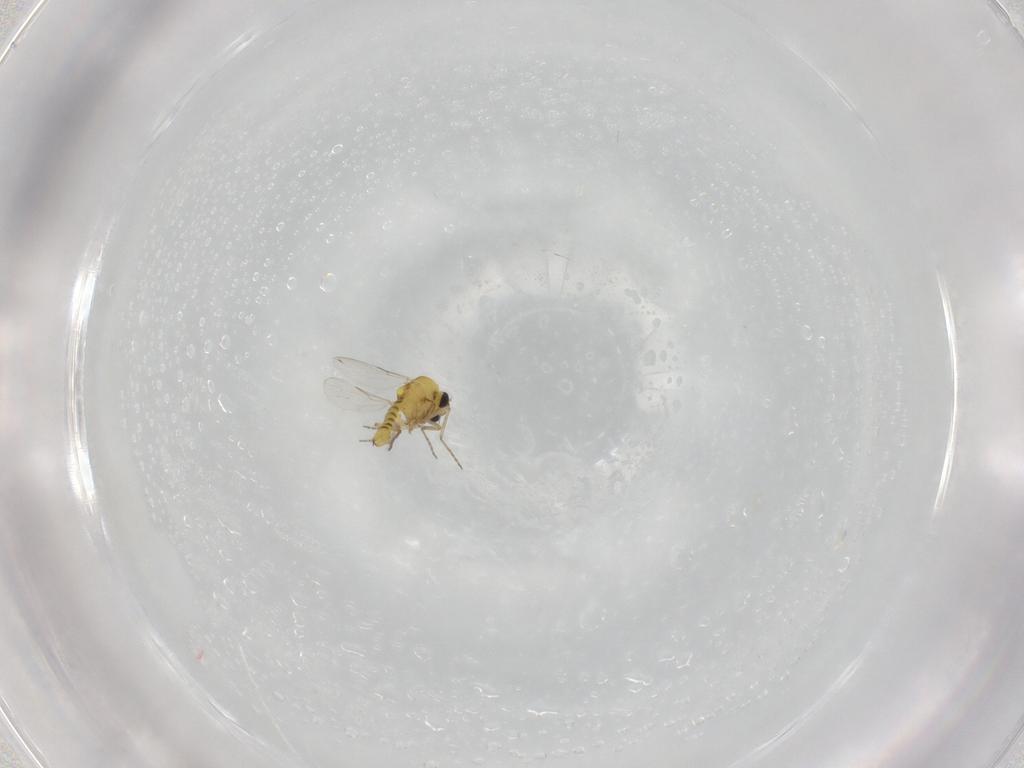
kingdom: Animalia
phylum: Arthropoda
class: Insecta
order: Diptera
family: Ceratopogonidae
